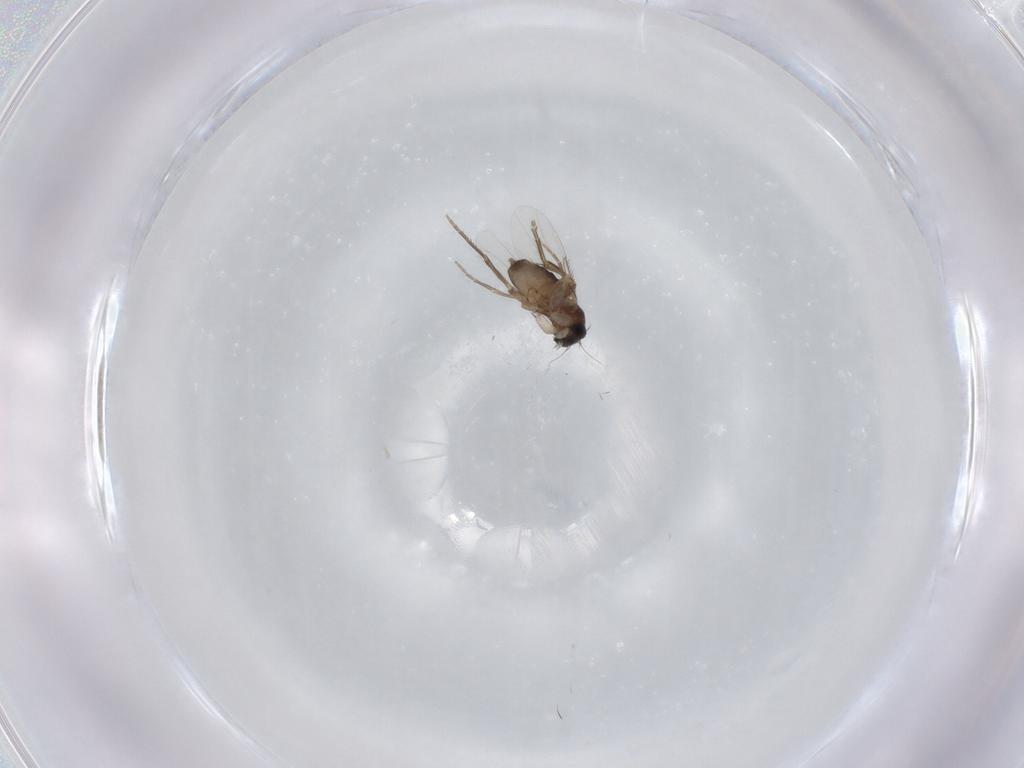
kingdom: Animalia
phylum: Arthropoda
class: Insecta
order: Diptera
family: Phoridae
